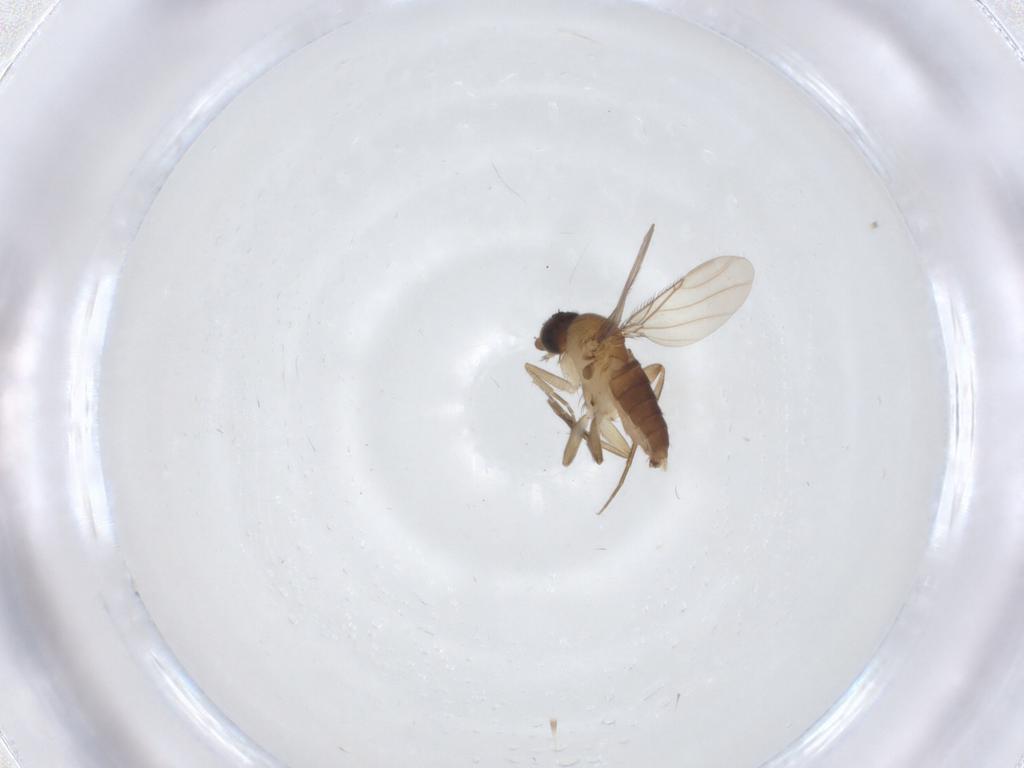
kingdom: Animalia
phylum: Arthropoda
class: Insecta
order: Diptera
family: Phoridae
